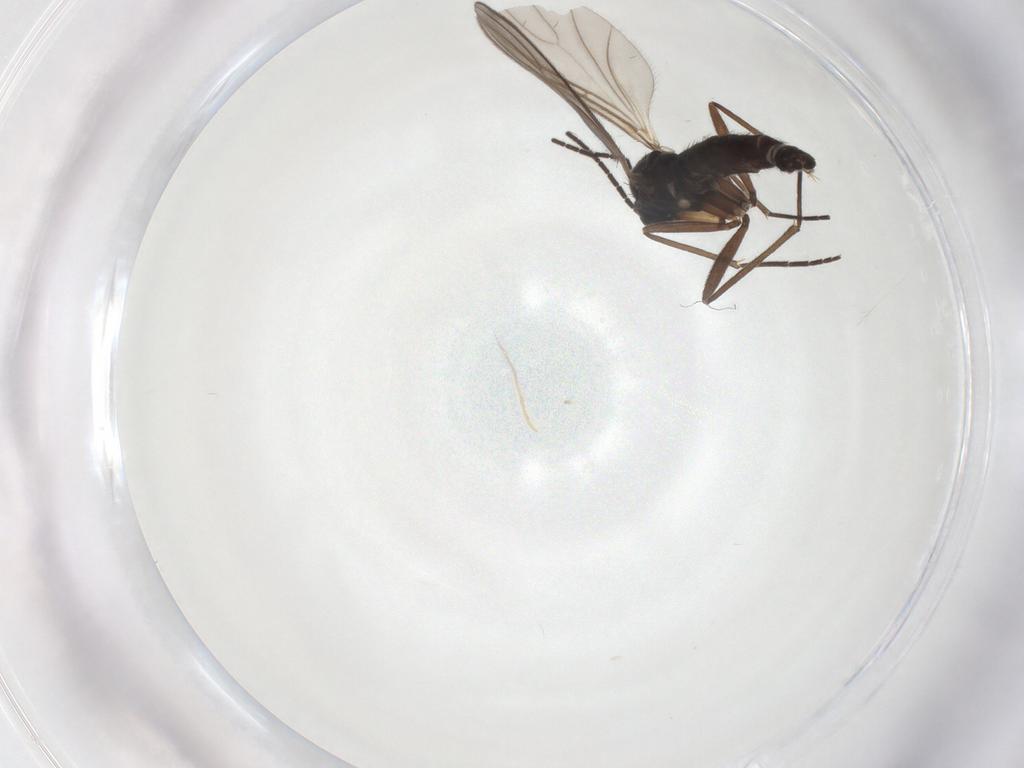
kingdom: Animalia
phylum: Arthropoda
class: Insecta
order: Diptera
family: Sciaridae
